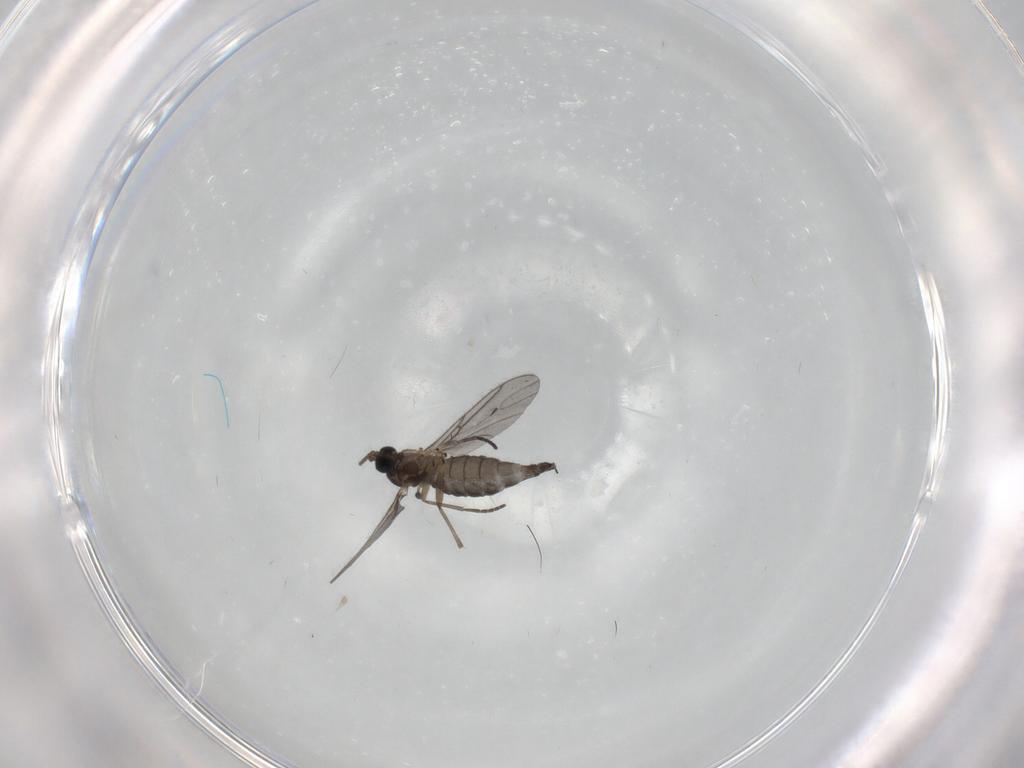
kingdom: Animalia
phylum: Arthropoda
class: Insecta
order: Diptera
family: Sciaridae
